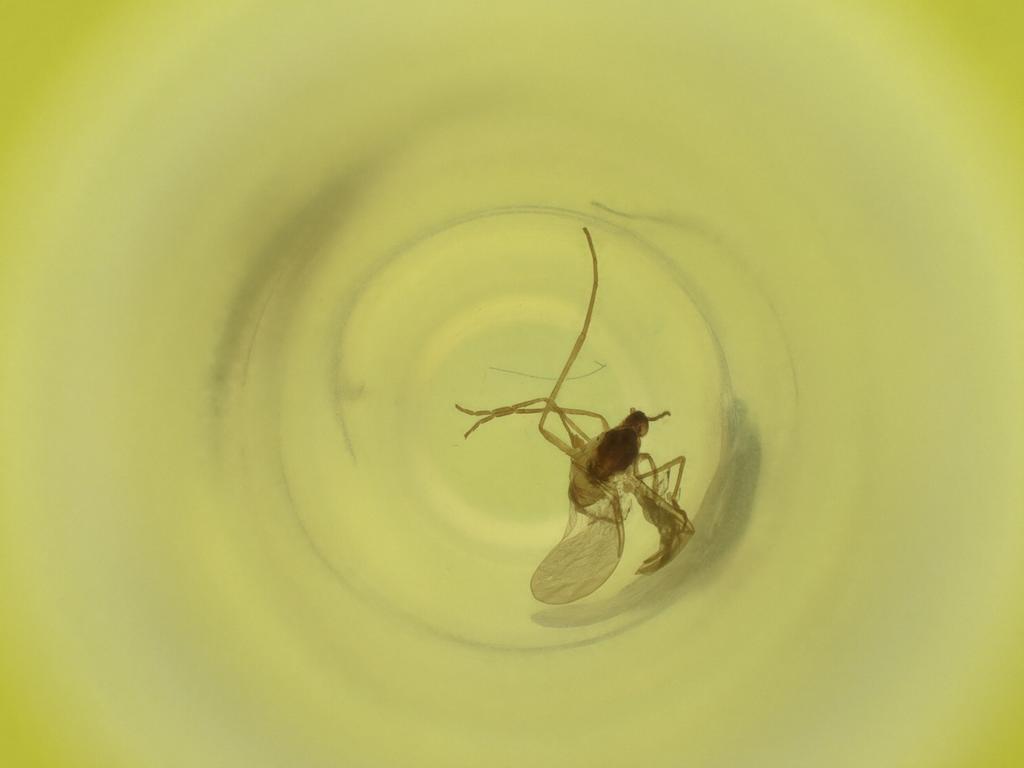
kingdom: Animalia
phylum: Arthropoda
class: Insecta
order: Diptera
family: Cecidomyiidae
